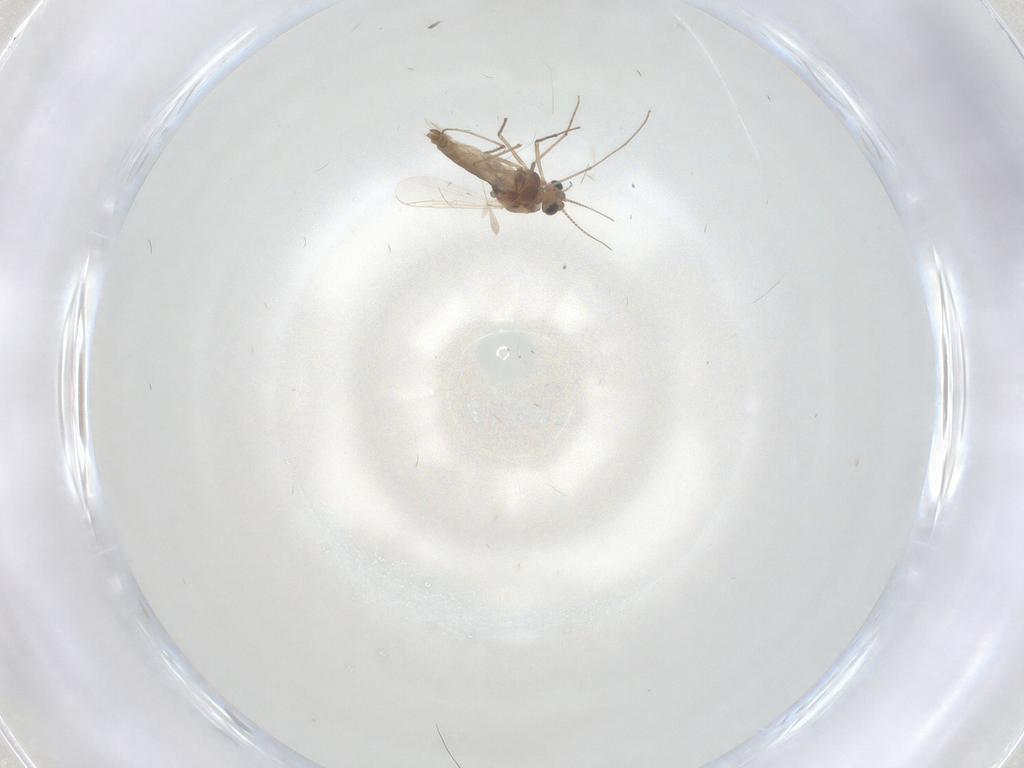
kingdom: Animalia
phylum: Arthropoda
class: Insecta
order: Diptera
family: Chironomidae
